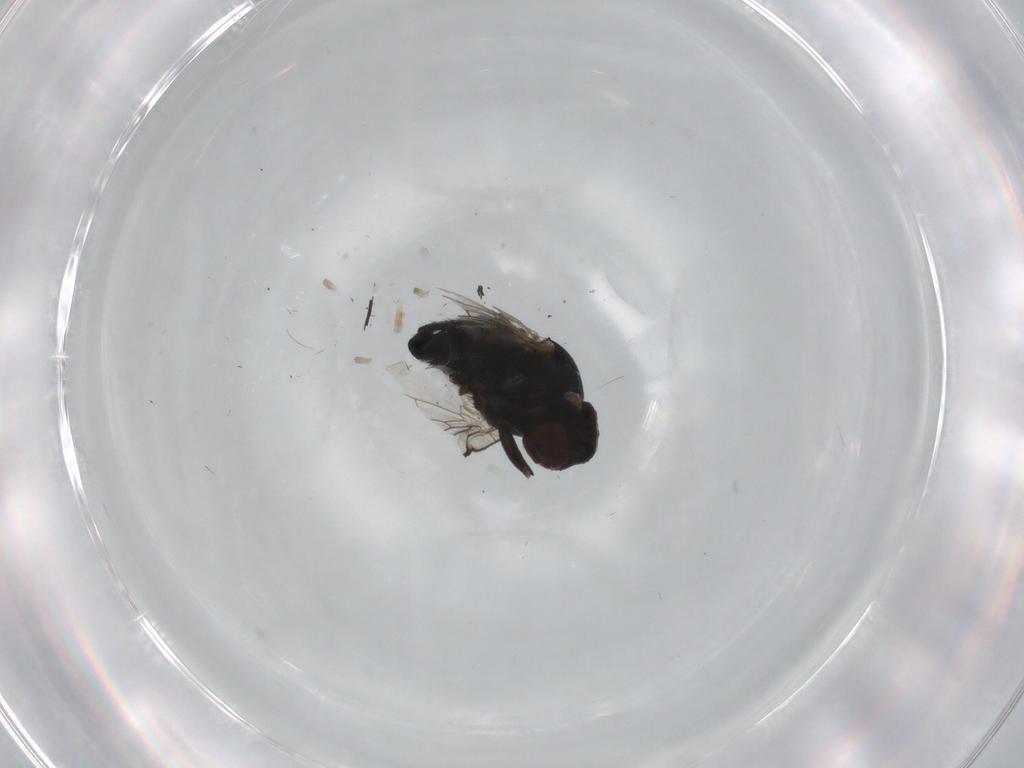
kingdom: Animalia
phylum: Arthropoda
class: Insecta
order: Diptera
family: Agromyzidae
